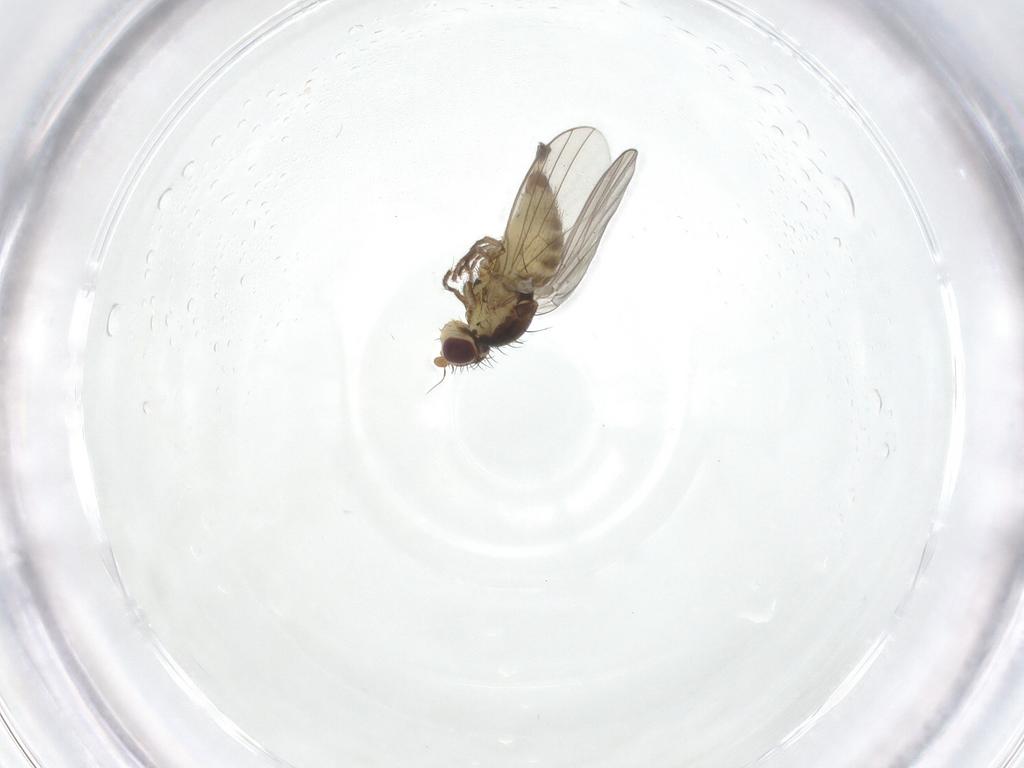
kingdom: Animalia
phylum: Arthropoda
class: Insecta
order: Diptera
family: Agromyzidae
